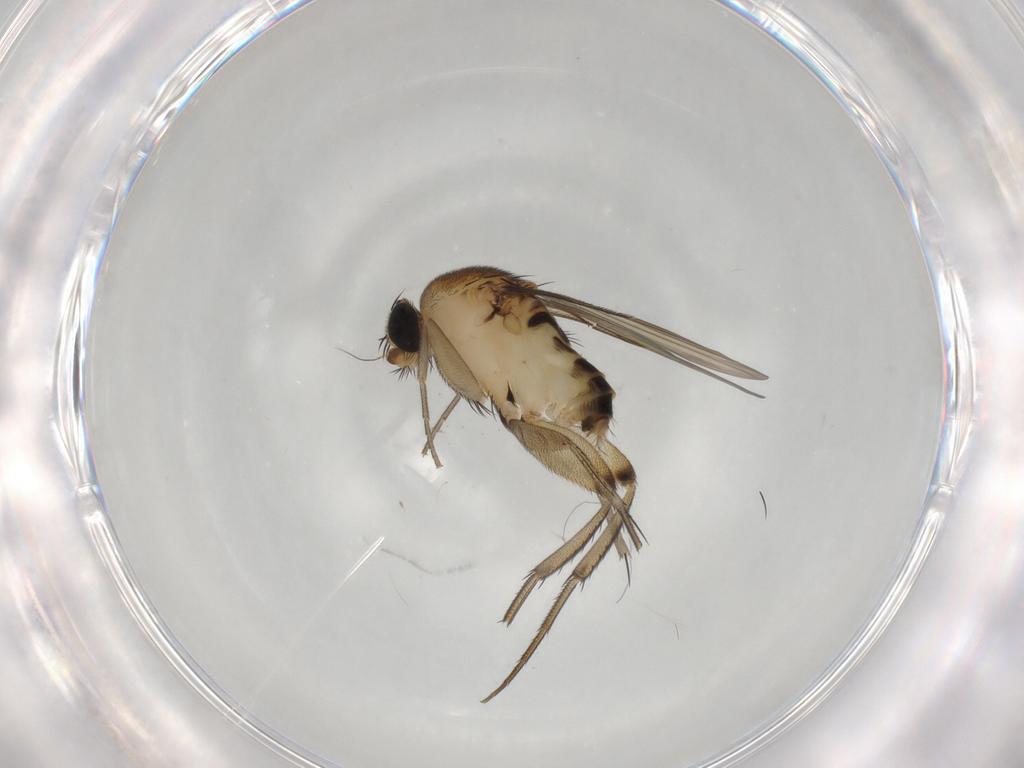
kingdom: Animalia
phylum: Arthropoda
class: Insecta
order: Diptera
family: Phoridae
